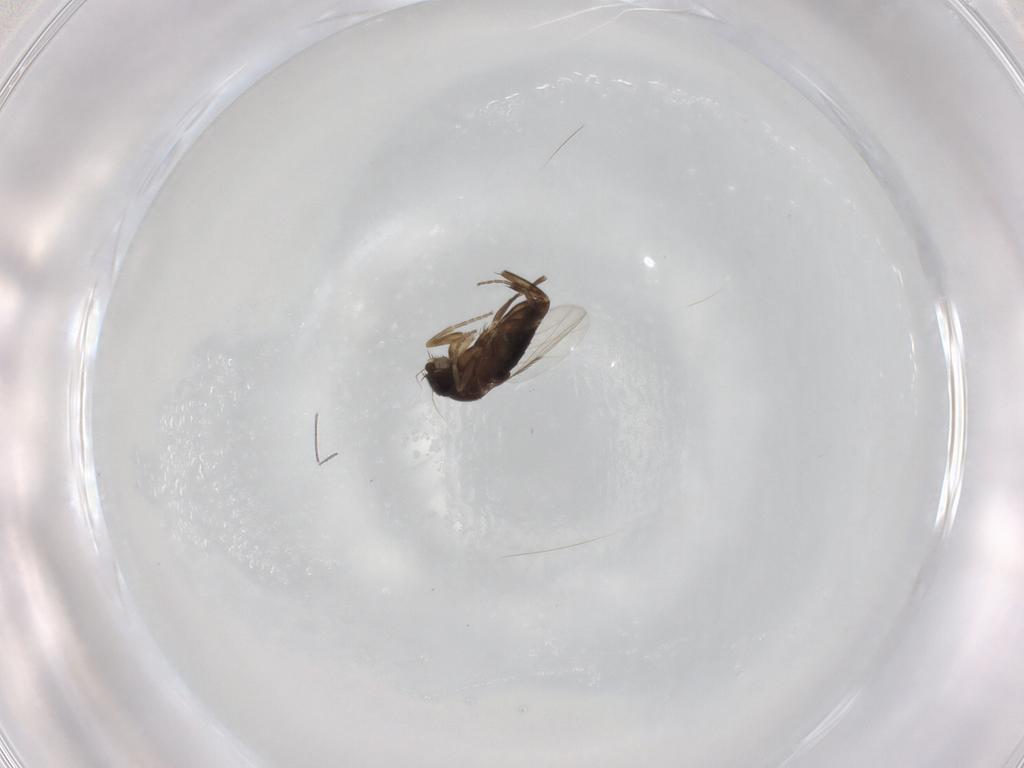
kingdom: Animalia
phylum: Arthropoda
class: Insecta
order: Diptera
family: Phoridae
